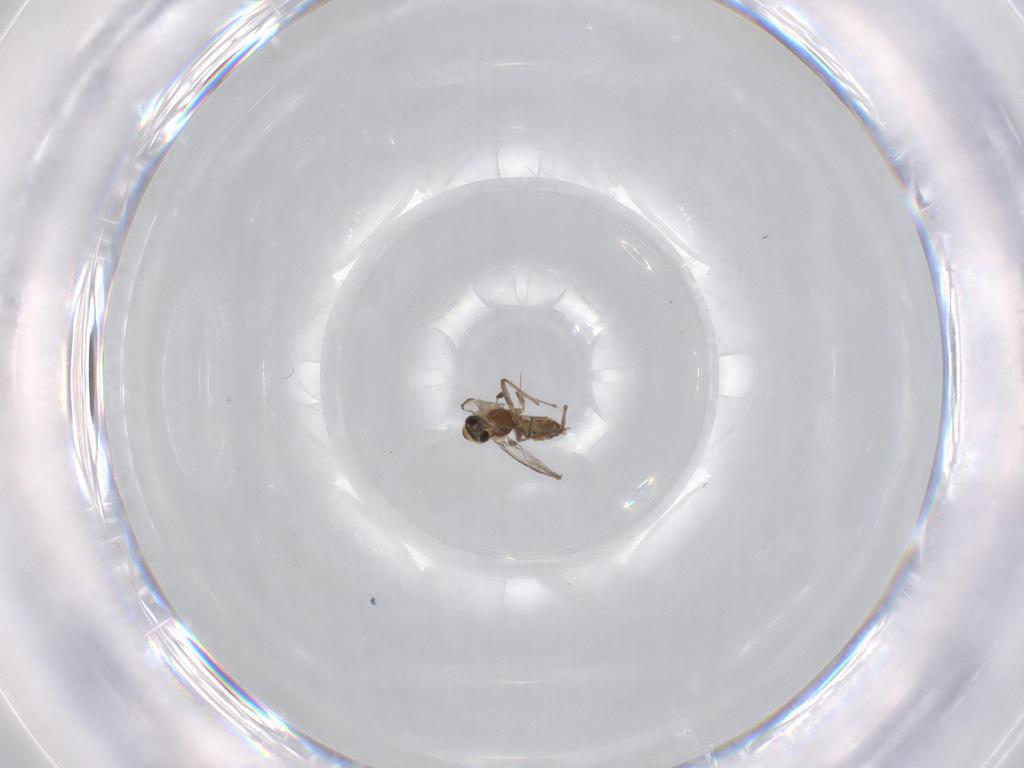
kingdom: Animalia
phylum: Arthropoda
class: Insecta
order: Diptera
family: Chironomidae
